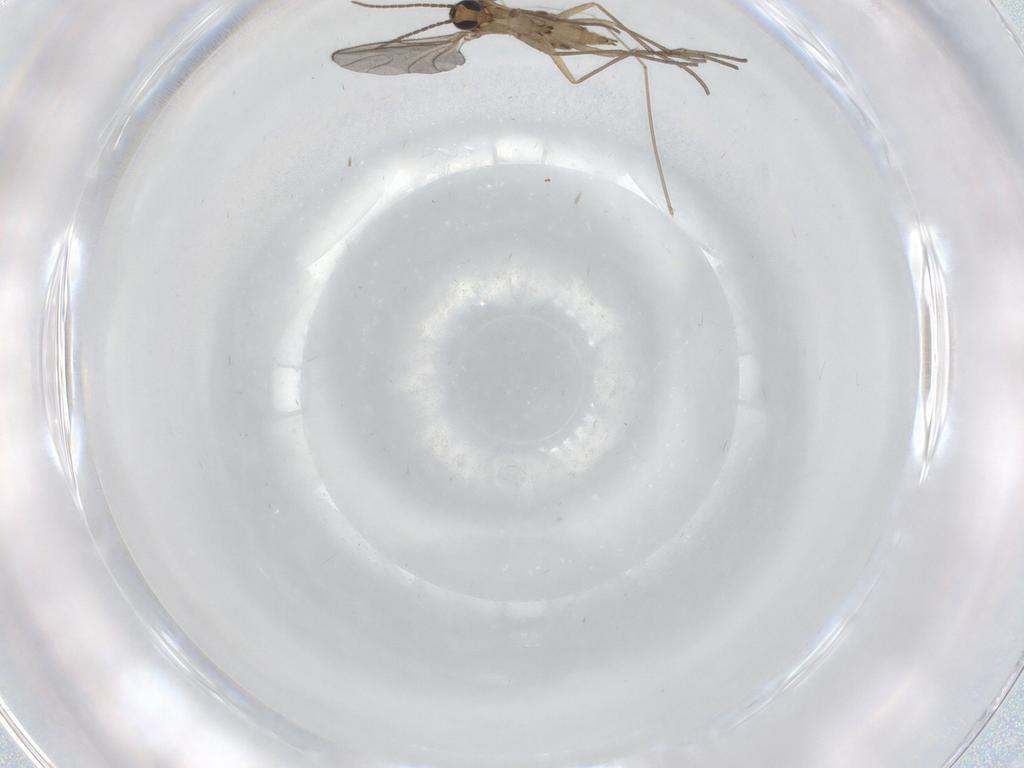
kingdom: Animalia
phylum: Arthropoda
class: Insecta
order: Diptera
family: Sciaridae
